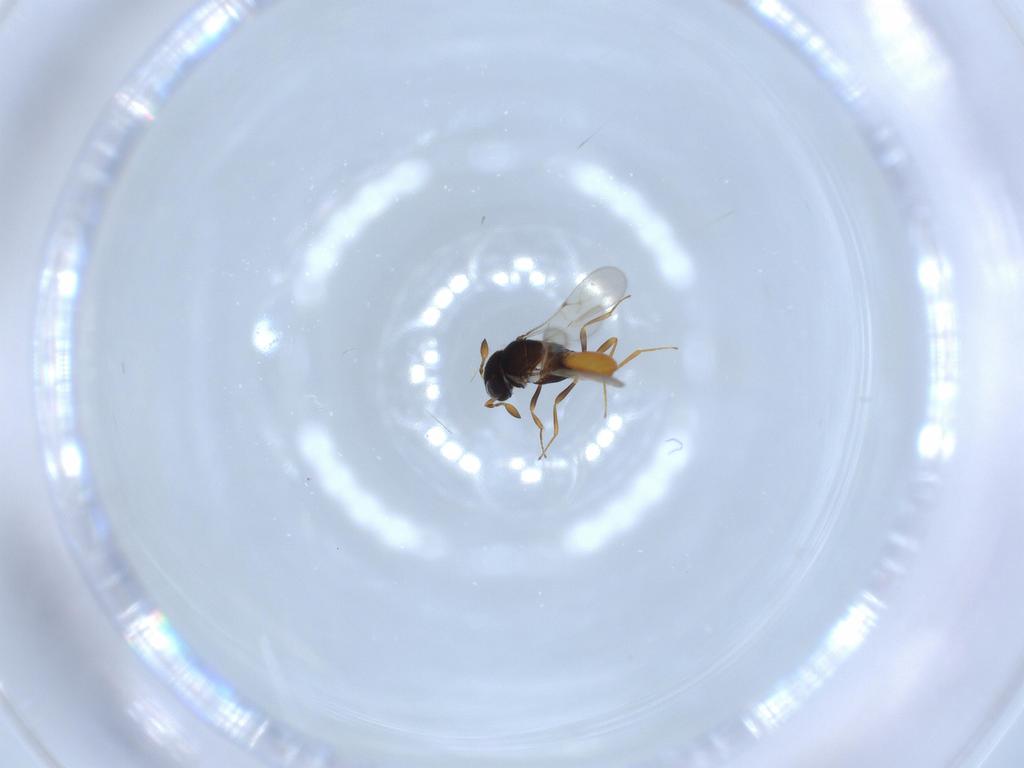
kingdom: Animalia
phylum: Arthropoda
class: Insecta
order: Hymenoptera
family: Scelionidae
